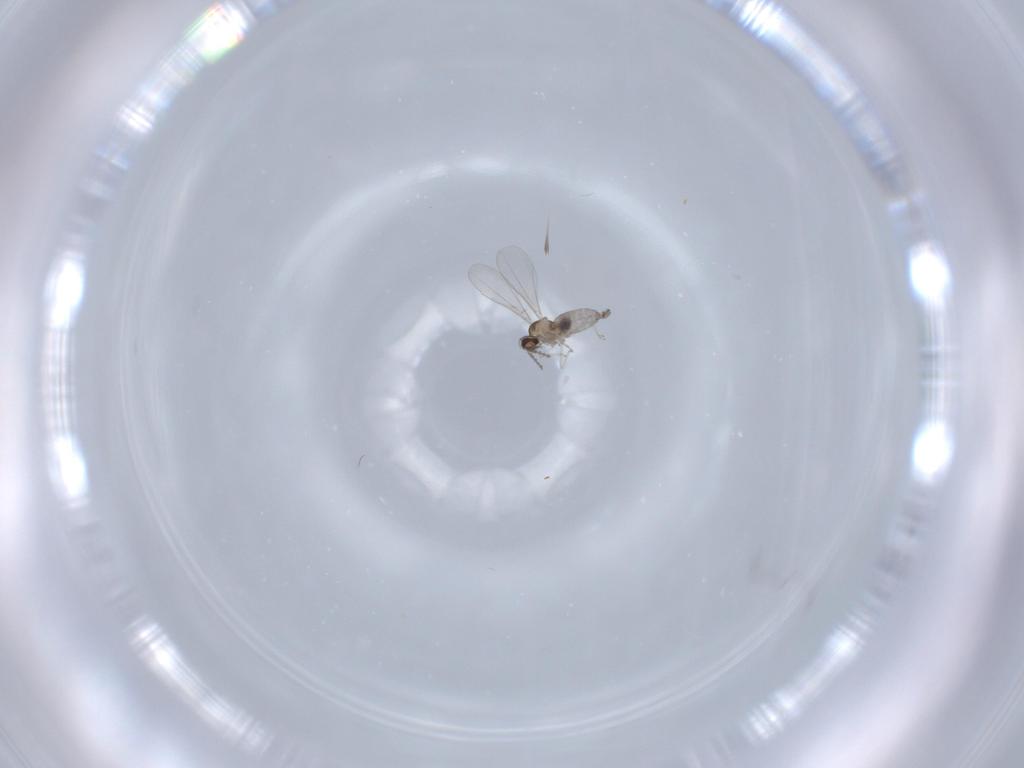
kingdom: Animalia
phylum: Arthropoda
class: Insecta
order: Diptera
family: Cecidomyiidae
